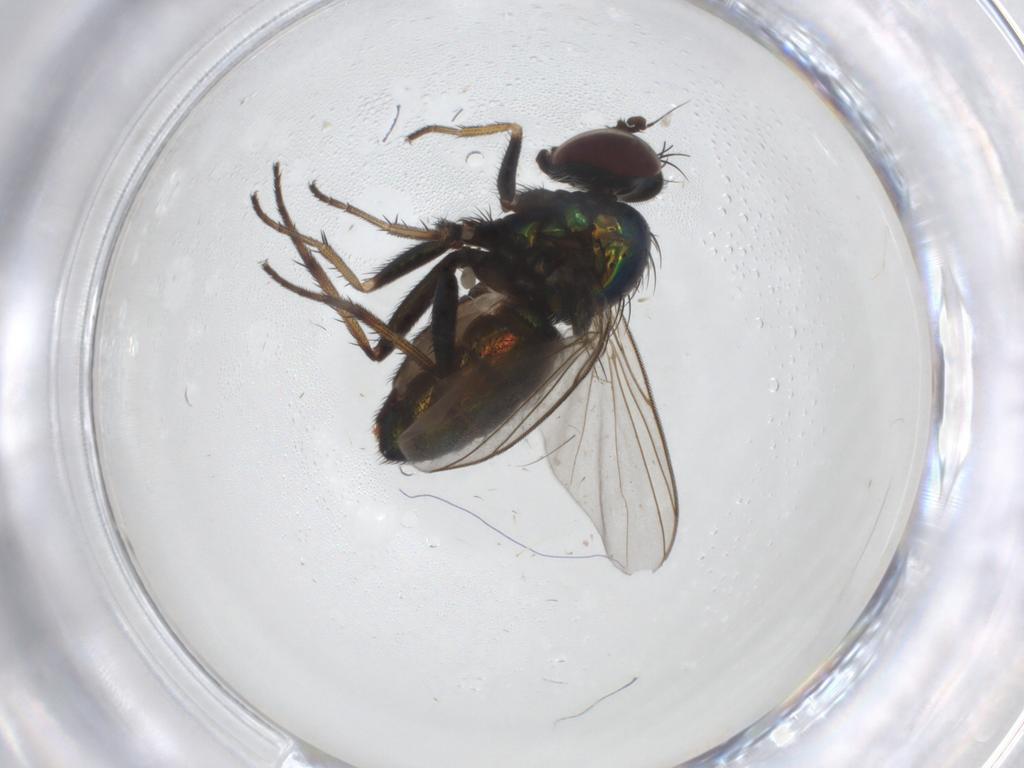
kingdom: Animalia
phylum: Arthropoda
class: Insecta
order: Diptera
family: Dolichopodidae
